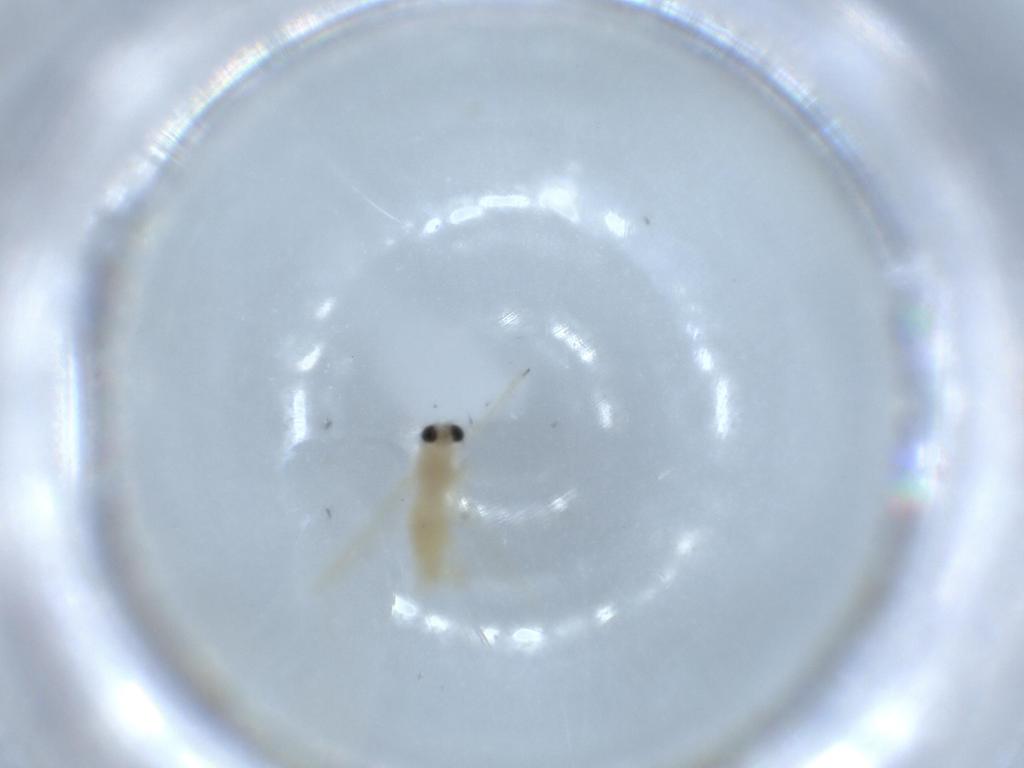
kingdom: Animalia
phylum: Arthropoda
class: Insecta
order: Diptera
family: Chironomidae
